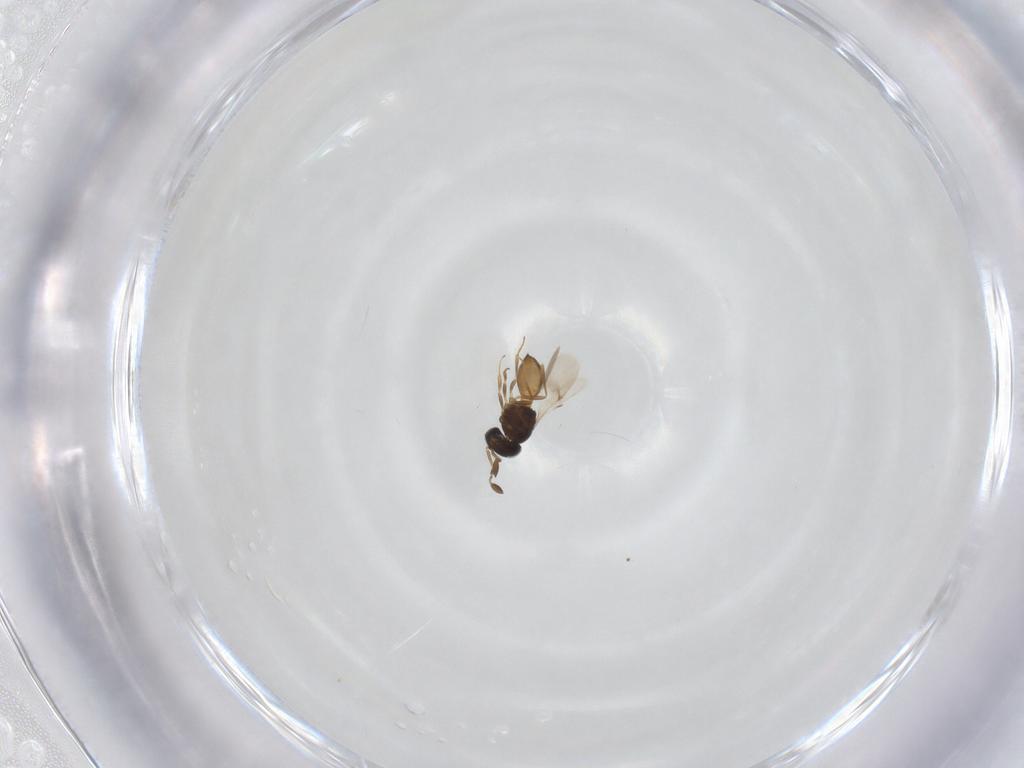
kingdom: Animalia
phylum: Arthropoda
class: Insecta
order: Hymenoptera
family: Scelionidae
